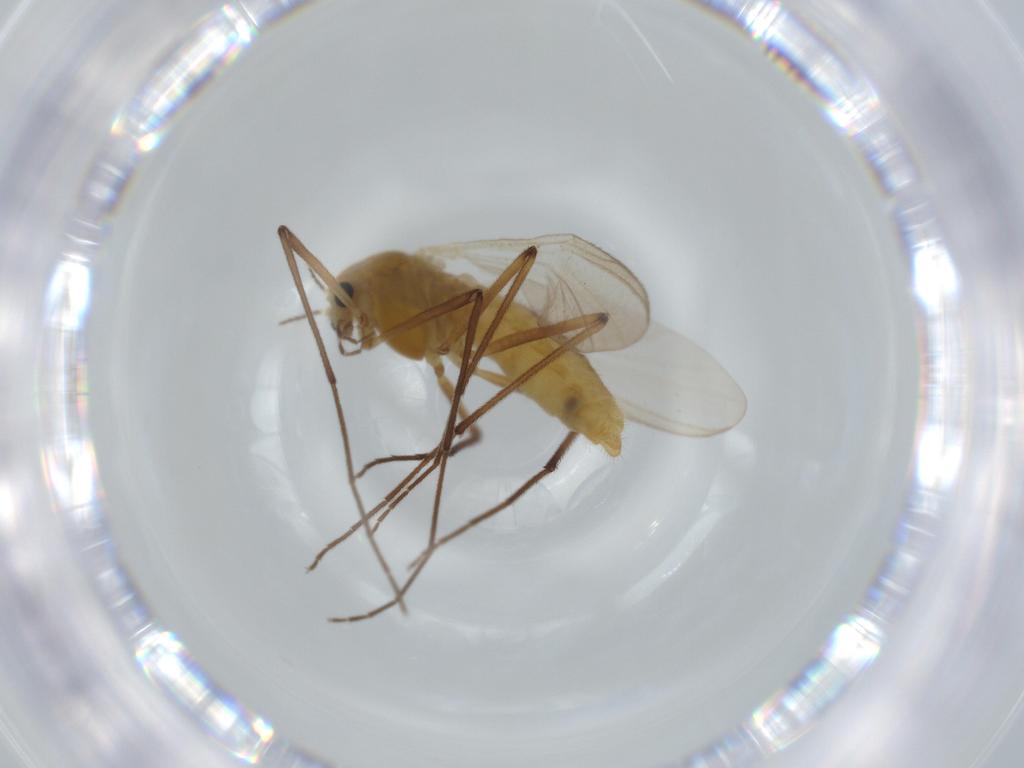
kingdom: Animalia
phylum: Arthropoda
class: Insecta
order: Diptera
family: Chironomidae
